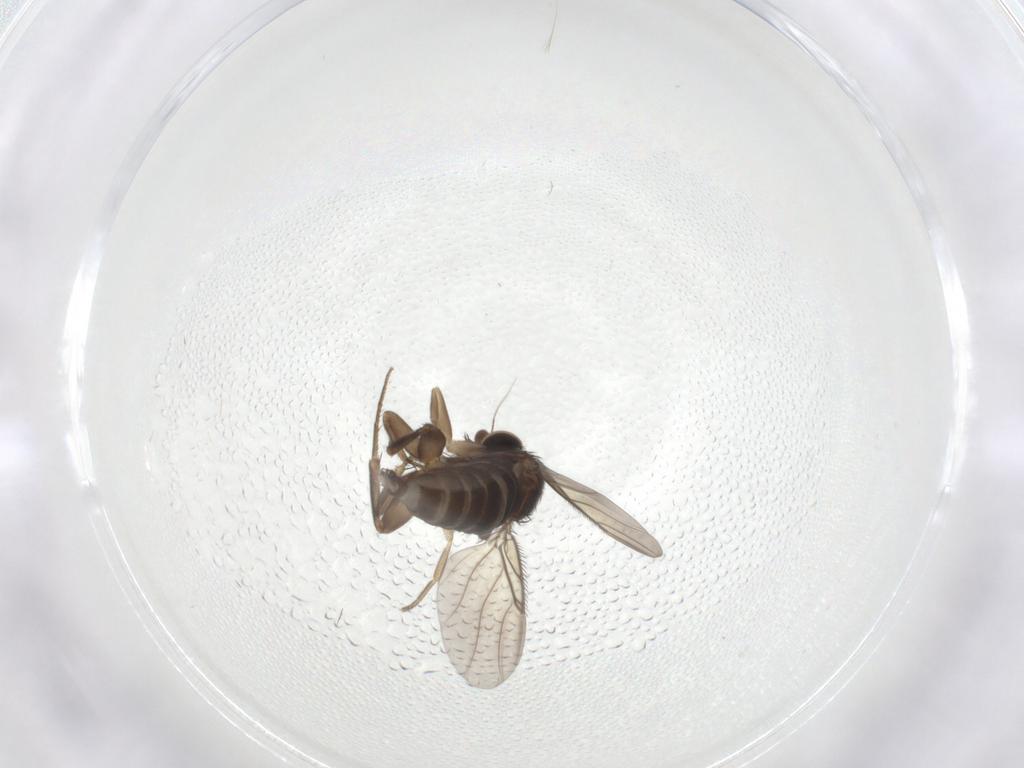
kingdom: Animalia
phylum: Arthropoda
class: Insecta
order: Diptera
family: Phoridae
